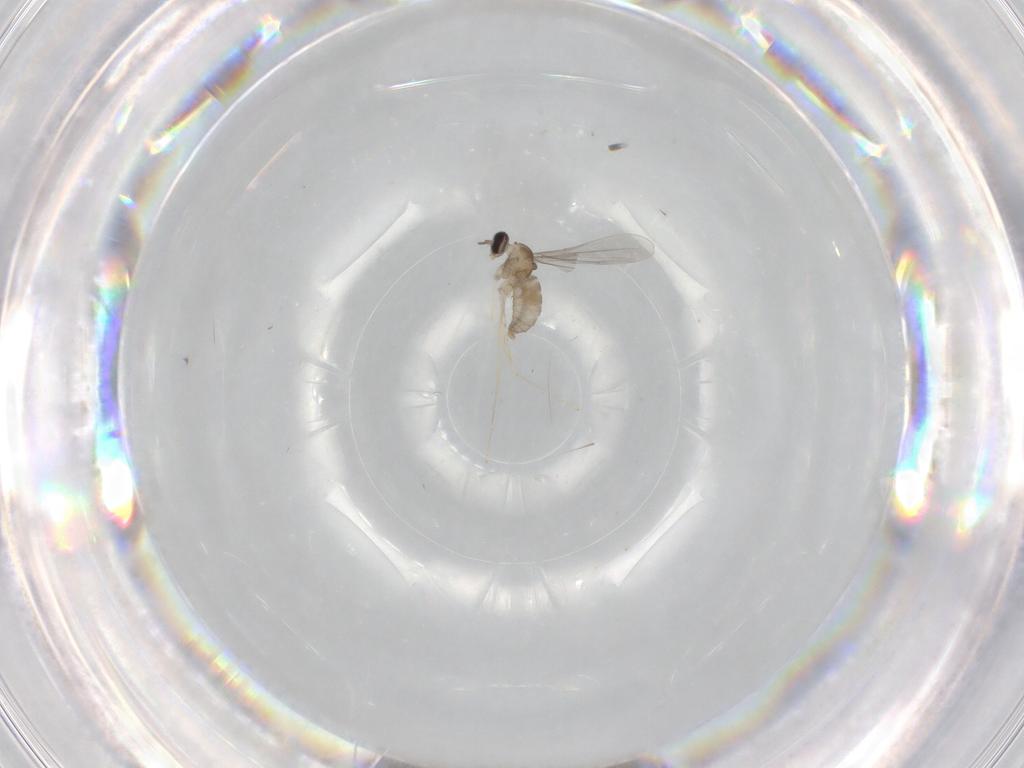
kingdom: Animalia
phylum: Arthropoda
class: Insecta
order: Diptera
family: Cecidomyiidae
